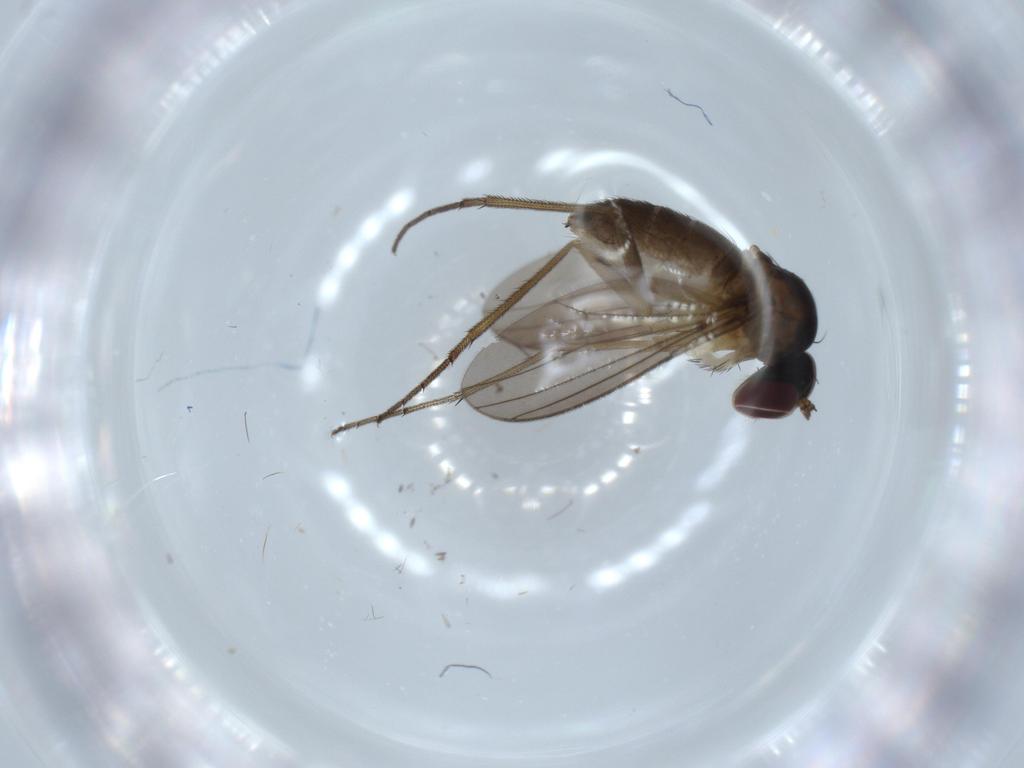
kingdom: Animalia
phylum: Arthropoda
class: Insecta
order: Diptera
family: Dolichopodidae
